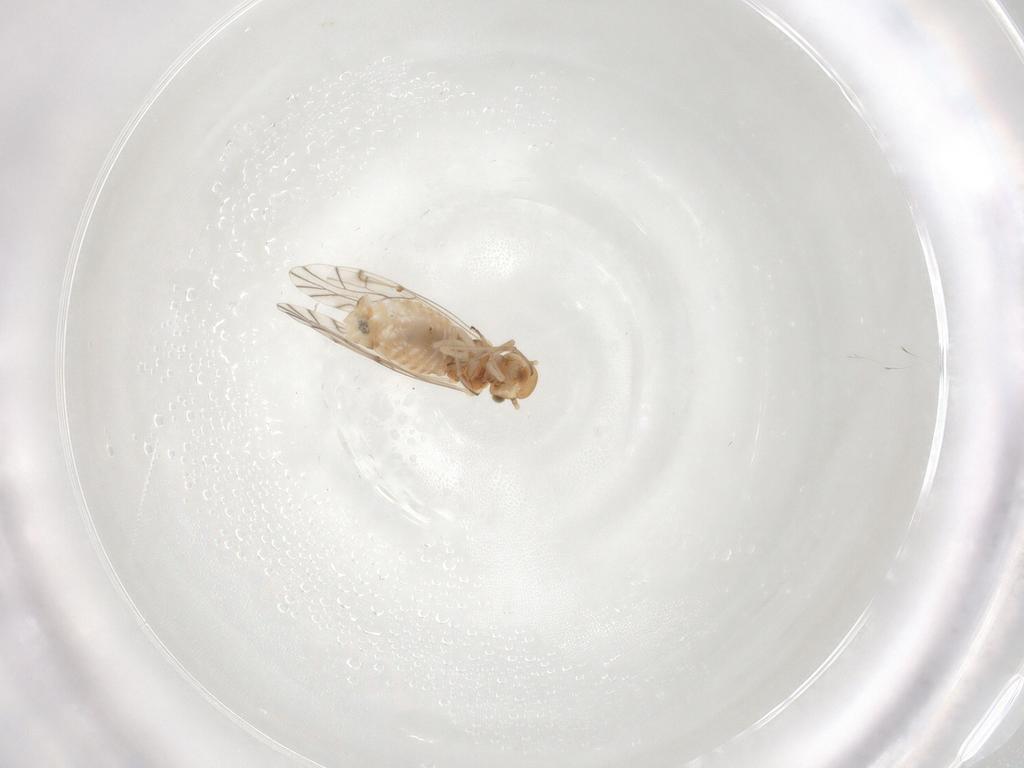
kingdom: Animalia
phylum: Arthropoda
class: Insecta
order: Psocodea
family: Lachesillidae
